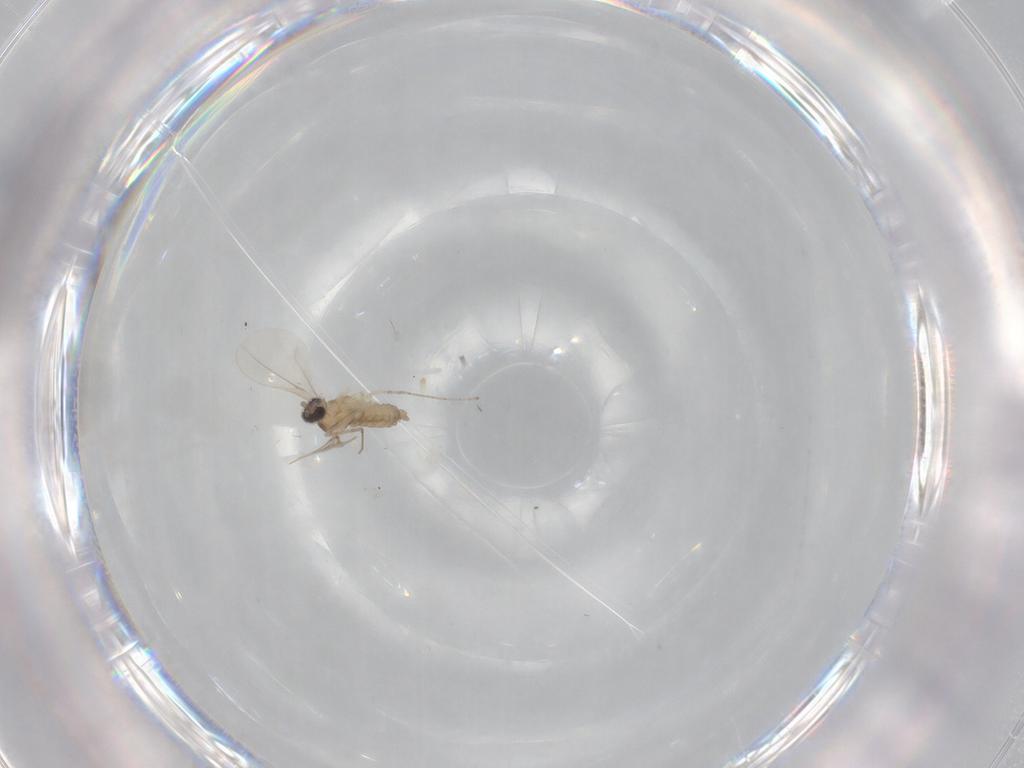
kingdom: Animalia
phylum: Arthropoda
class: Insecta
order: Diptera
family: Cecidomyiidae
